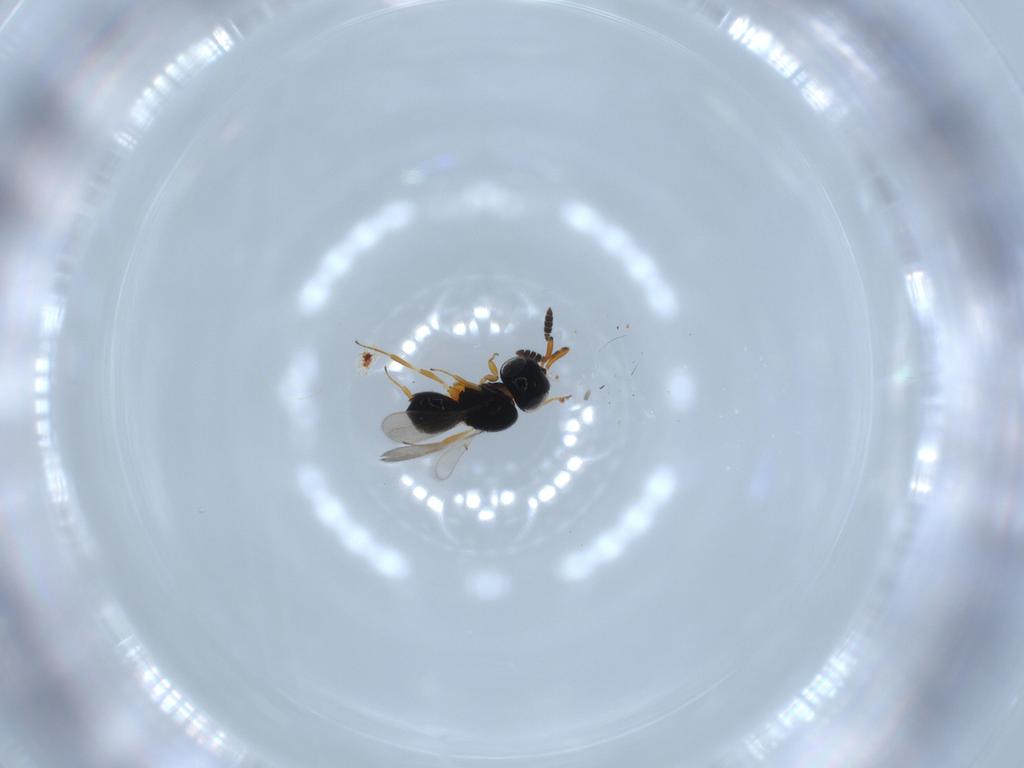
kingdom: Animalia
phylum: Arthropoda
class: Insecta
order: Hymenoptera
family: Scelionidae
